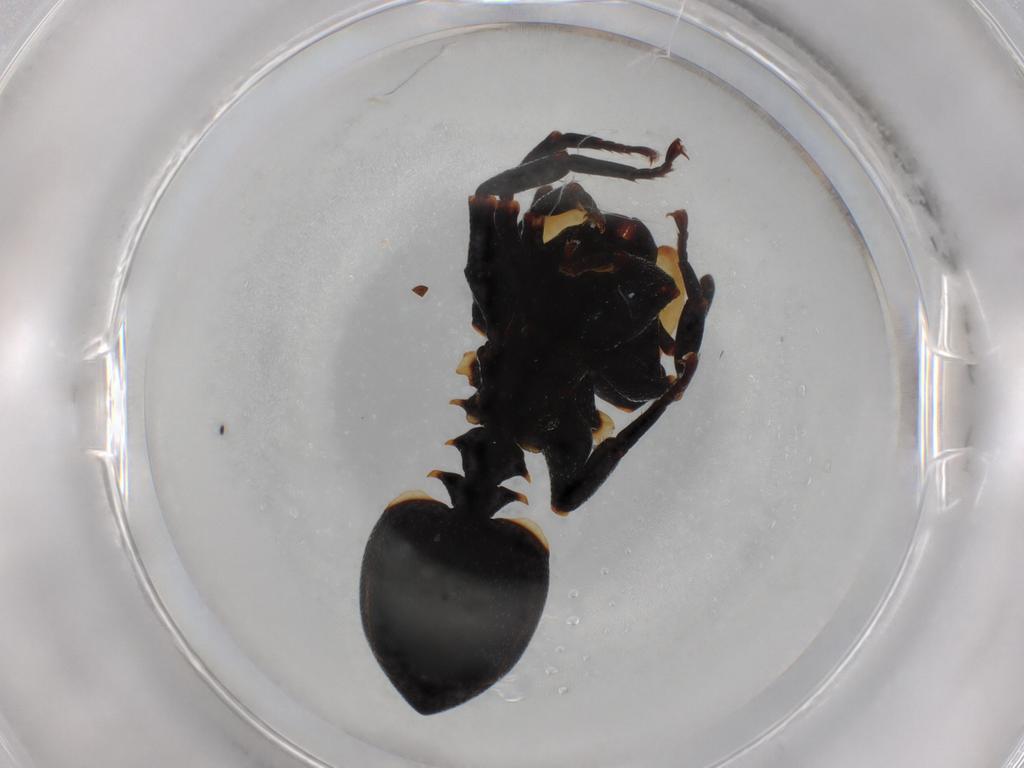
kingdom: Animalia
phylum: Arthropoda
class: Insecta
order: Hymenoptera
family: Formicidae
